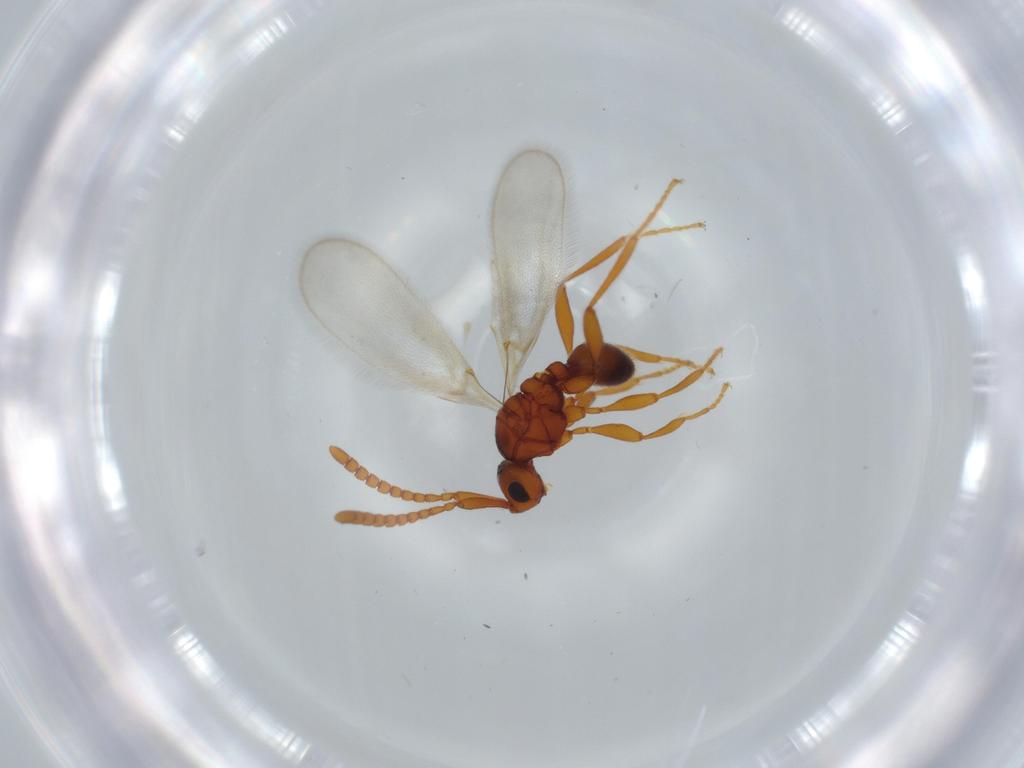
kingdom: Animalia
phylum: Arthropoda
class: Insecta
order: Hymenoptera
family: Diapriidae
